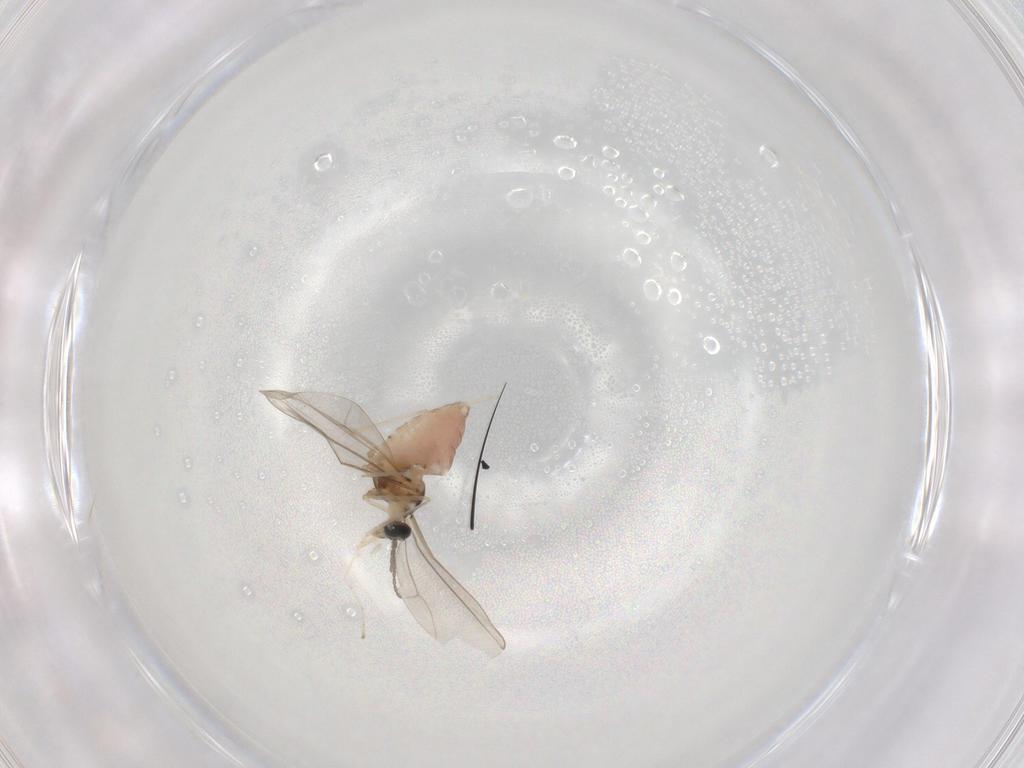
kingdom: Animalia
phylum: Arthropoda
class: Insecta
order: Diptera
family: Cecidomyiidae
